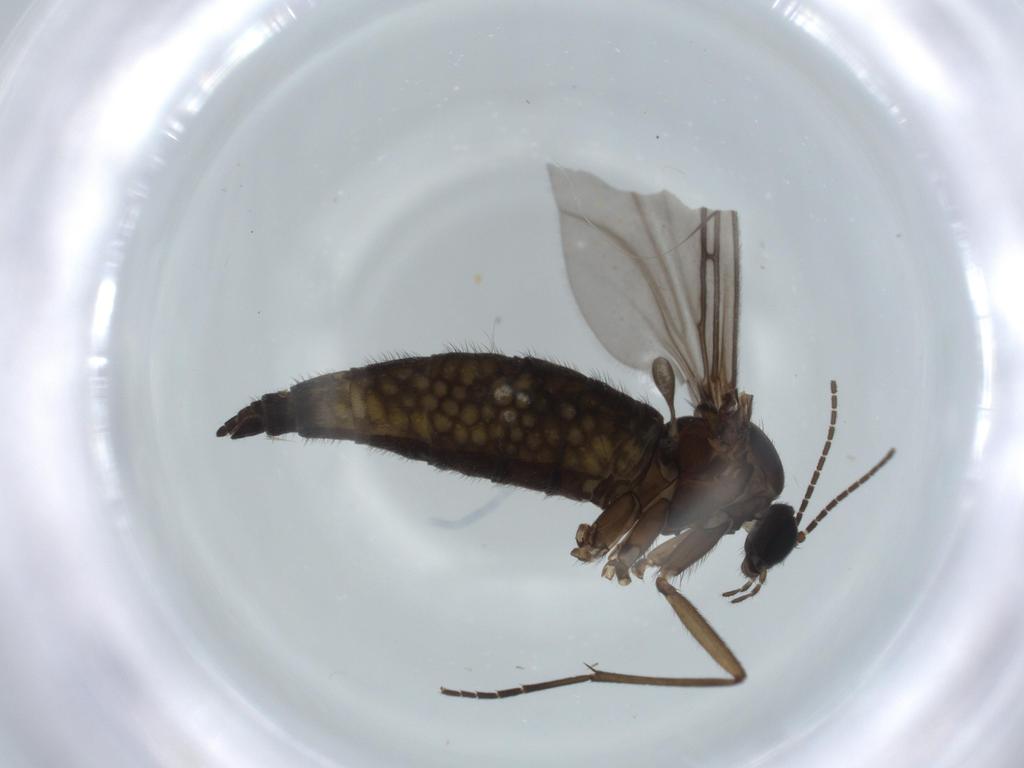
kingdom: Animalia
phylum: Arthropoda
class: Insecta
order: Diptera
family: Sciaridae
